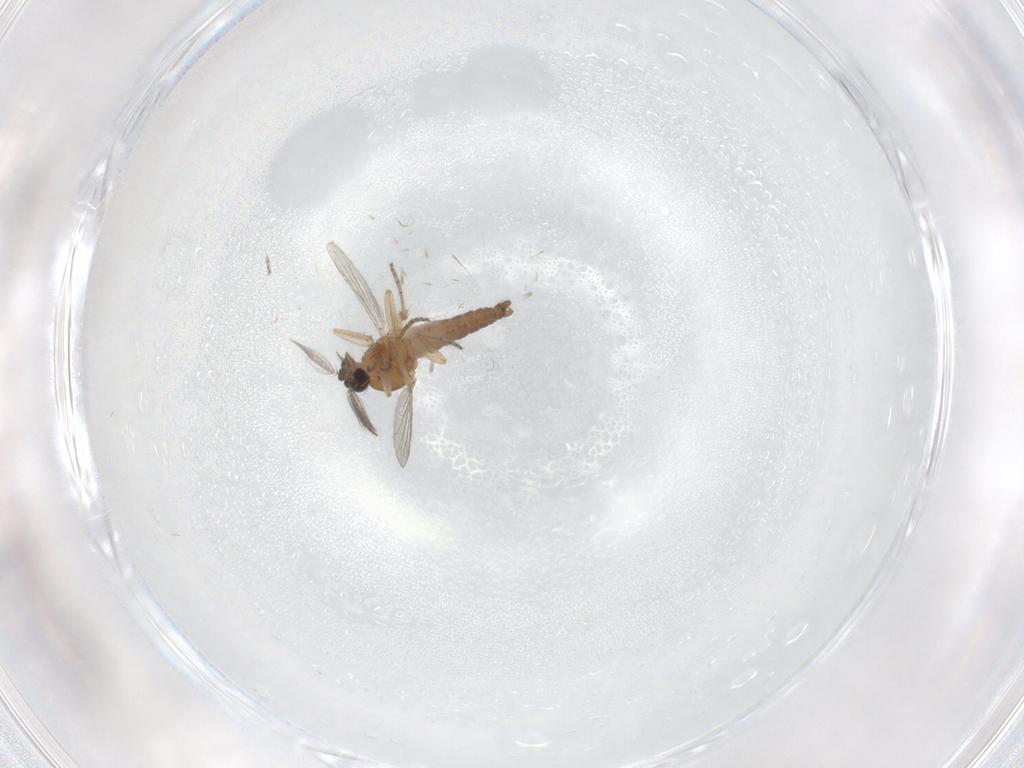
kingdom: Animalia
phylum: Arthropoda
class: Insecta
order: Diptera
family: Ceratopogonidae
